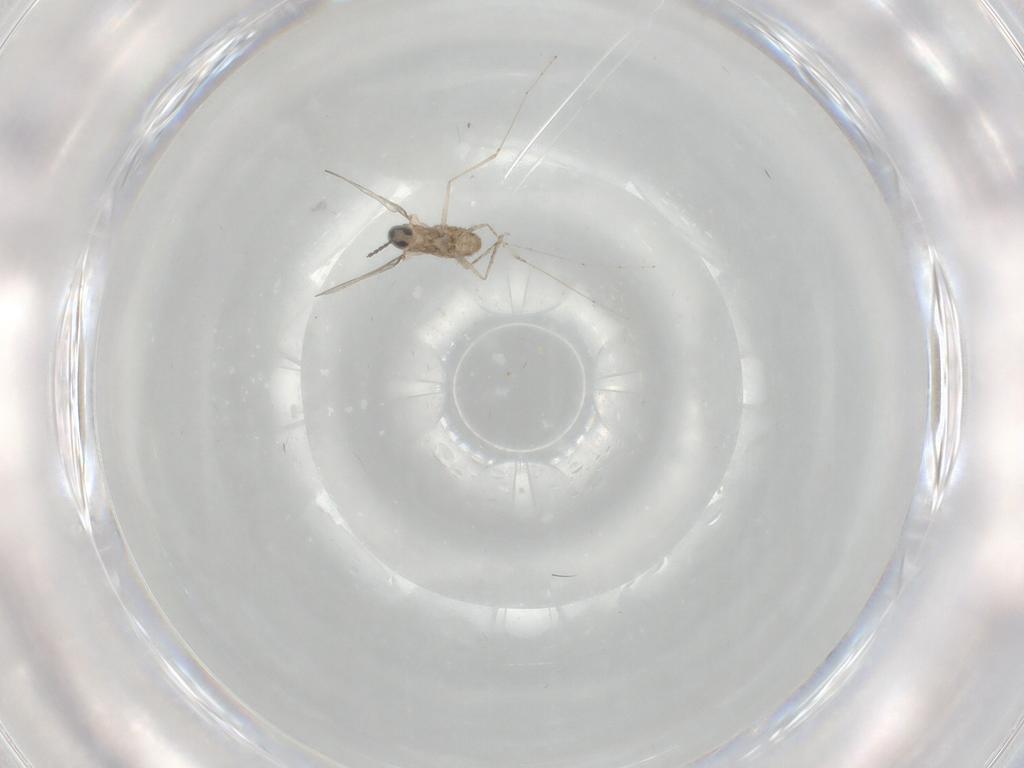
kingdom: Animalia
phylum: Arthropoda
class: Insecta
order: Diptera
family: Cecidomyiidae
